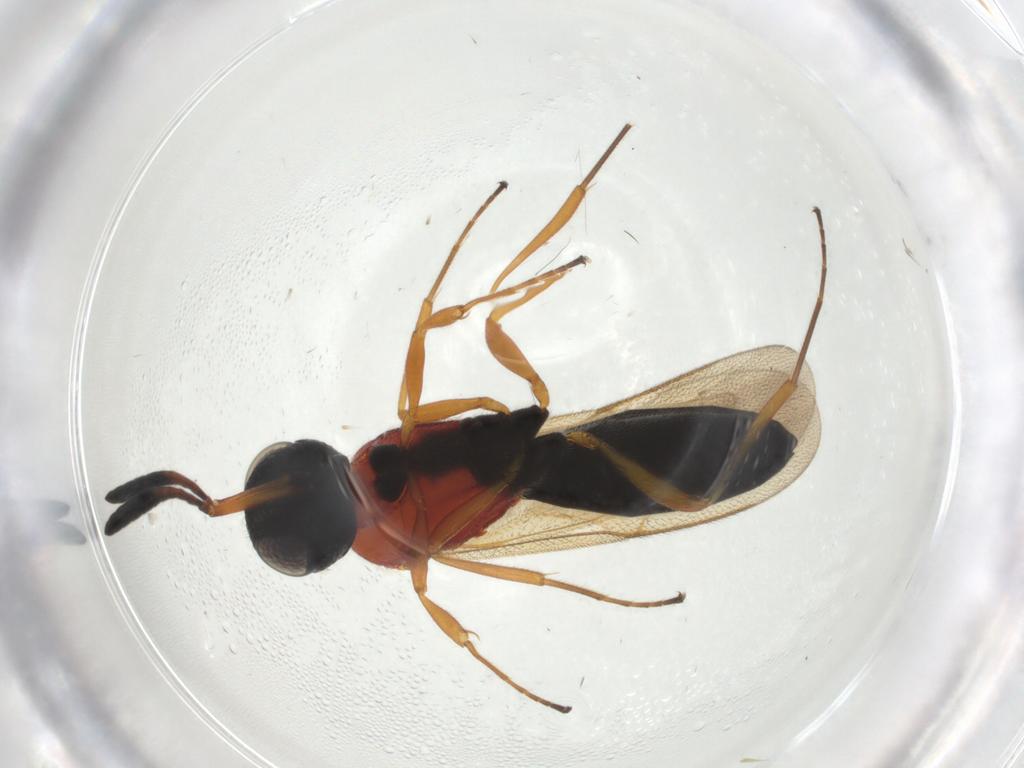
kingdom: Animalia
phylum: Arthropoda
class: Insecta
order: Hymenoptera
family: Scelionidae
